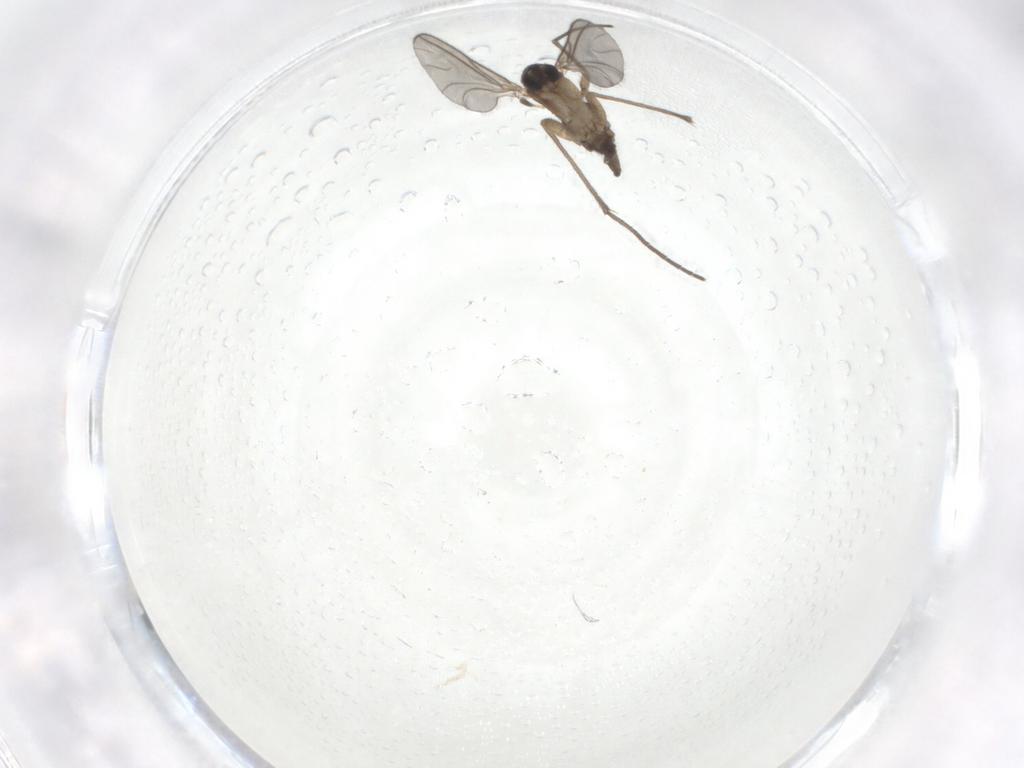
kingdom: Animalia
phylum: Arthropoda
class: Insecta
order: Diptera
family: Sciaridae
